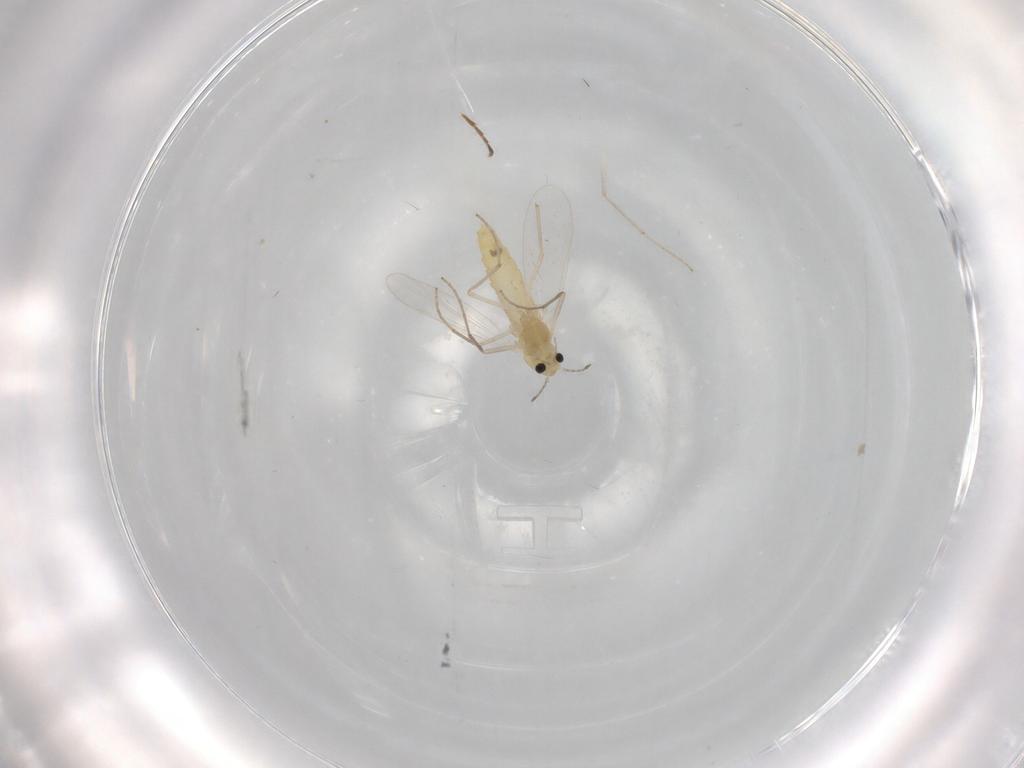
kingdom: Animalia
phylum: Arthropoda
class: Insecta
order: Diptera
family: Chironomidae
